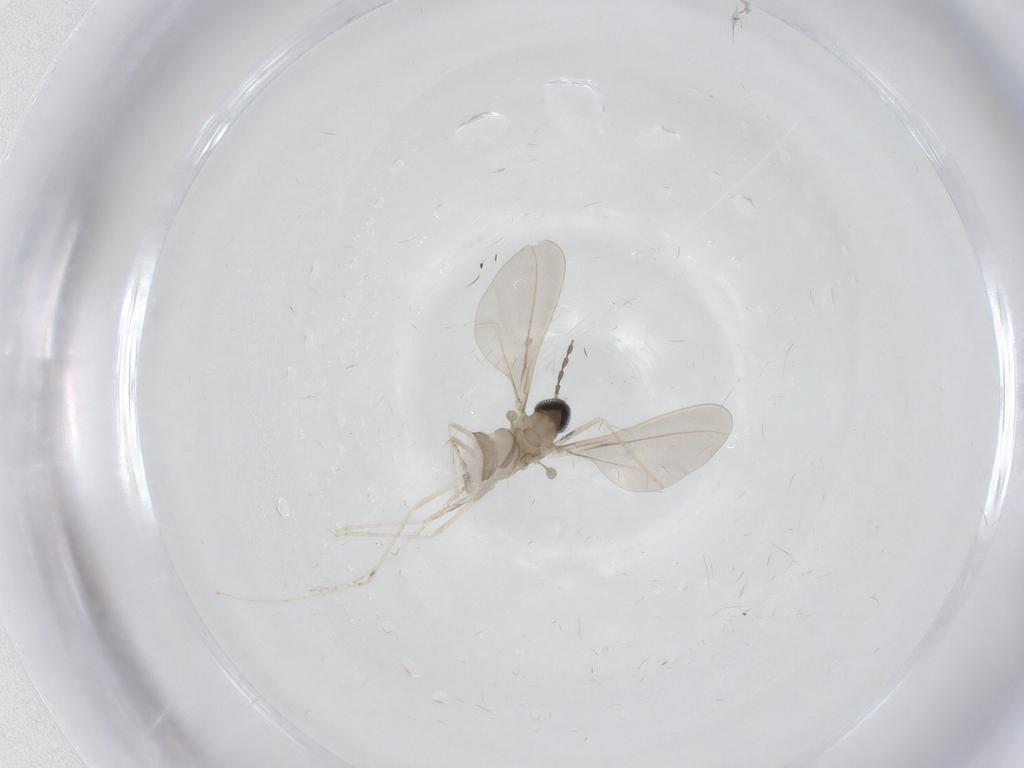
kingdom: Animalia
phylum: Arthropoda
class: Insecta
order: Diptera
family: Cecidomyiidae
